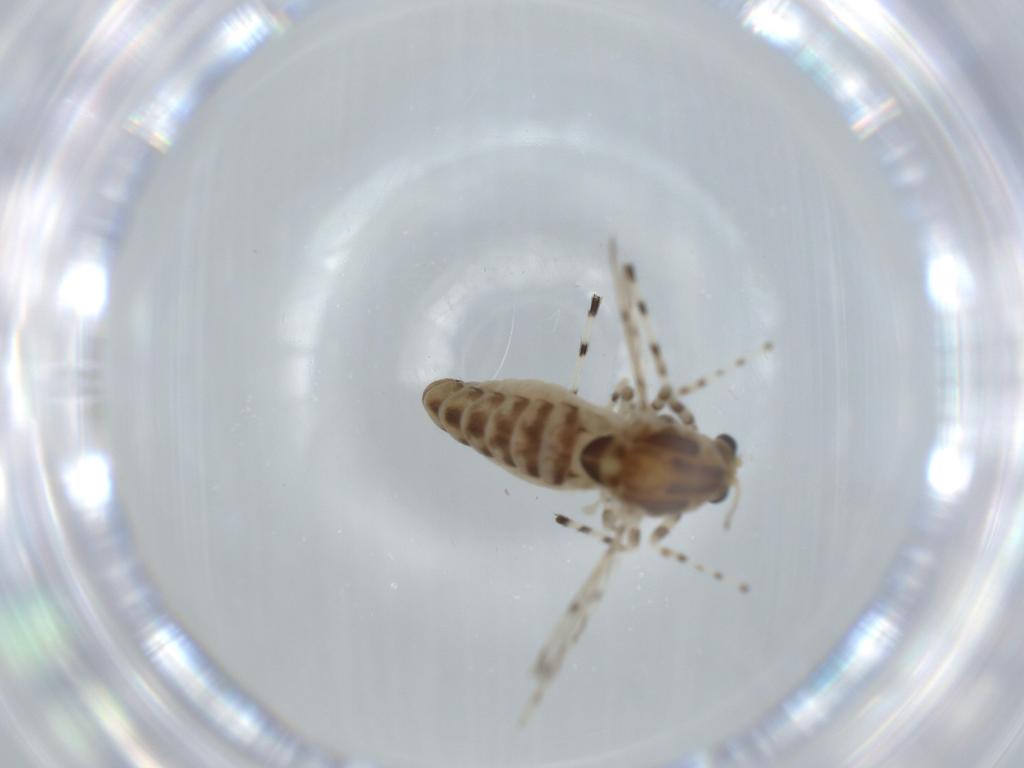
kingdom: Animalia
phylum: Arthropoda
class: Insecta
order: Diptera
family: Chironomidae
